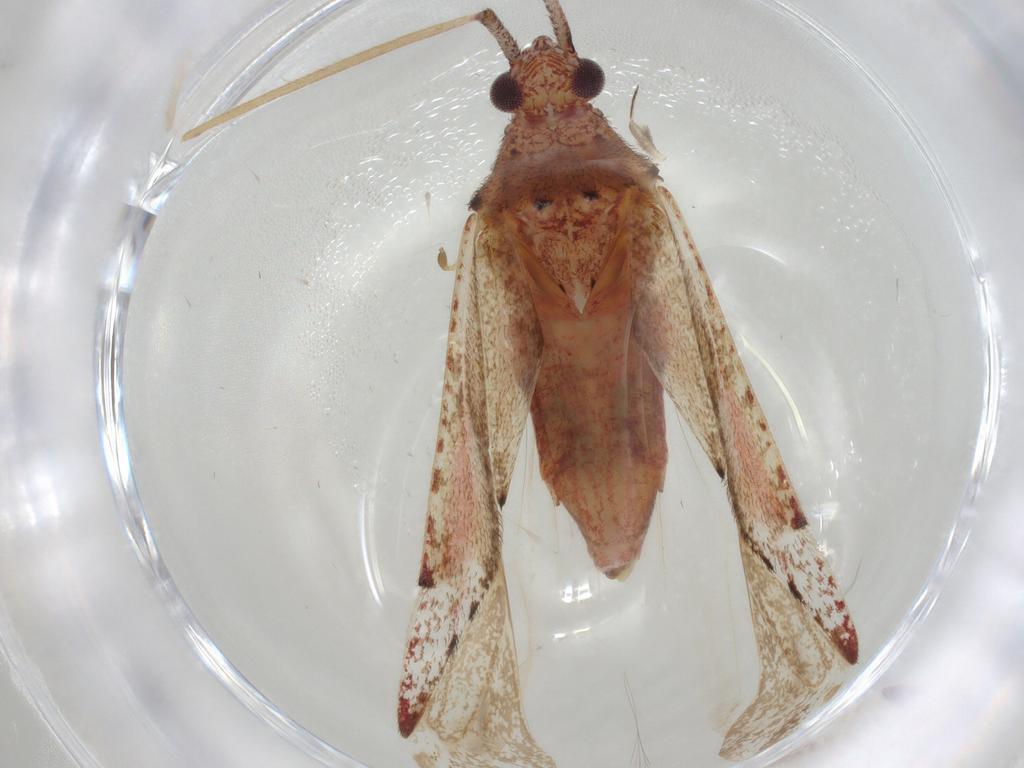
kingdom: Animalia
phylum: Arthropoda
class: Insecta
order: Hemiptera
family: Miridae
